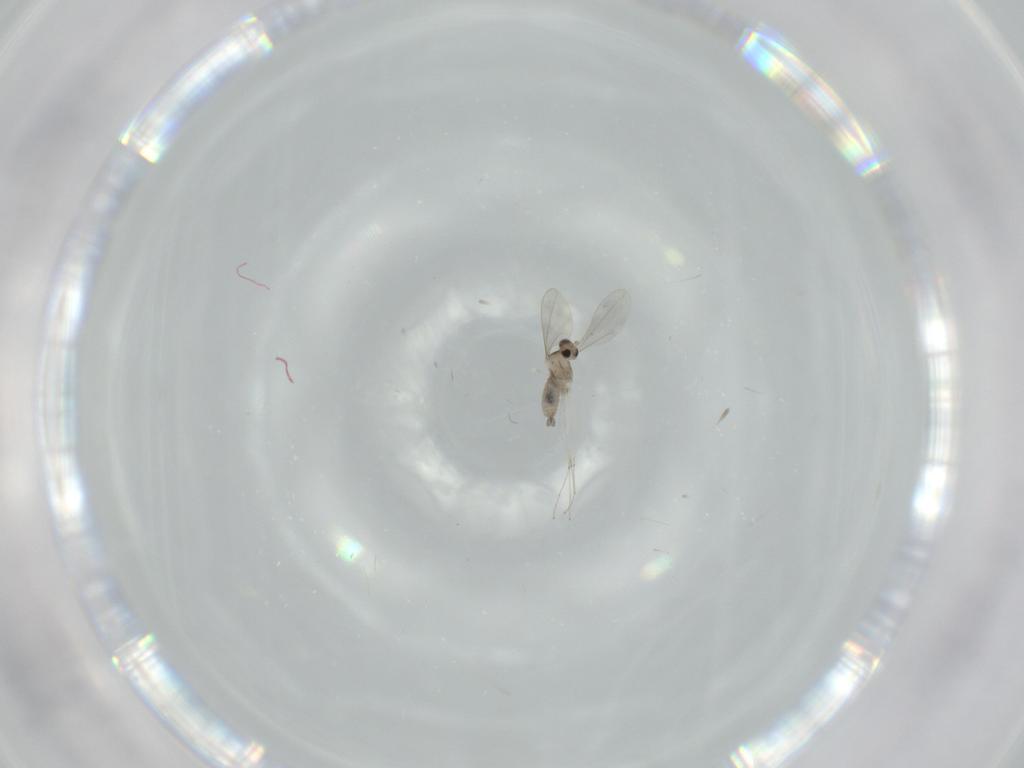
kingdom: Animalia
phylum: Arthropoda
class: Insecta
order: Diptera
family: Cecidomyiidae
